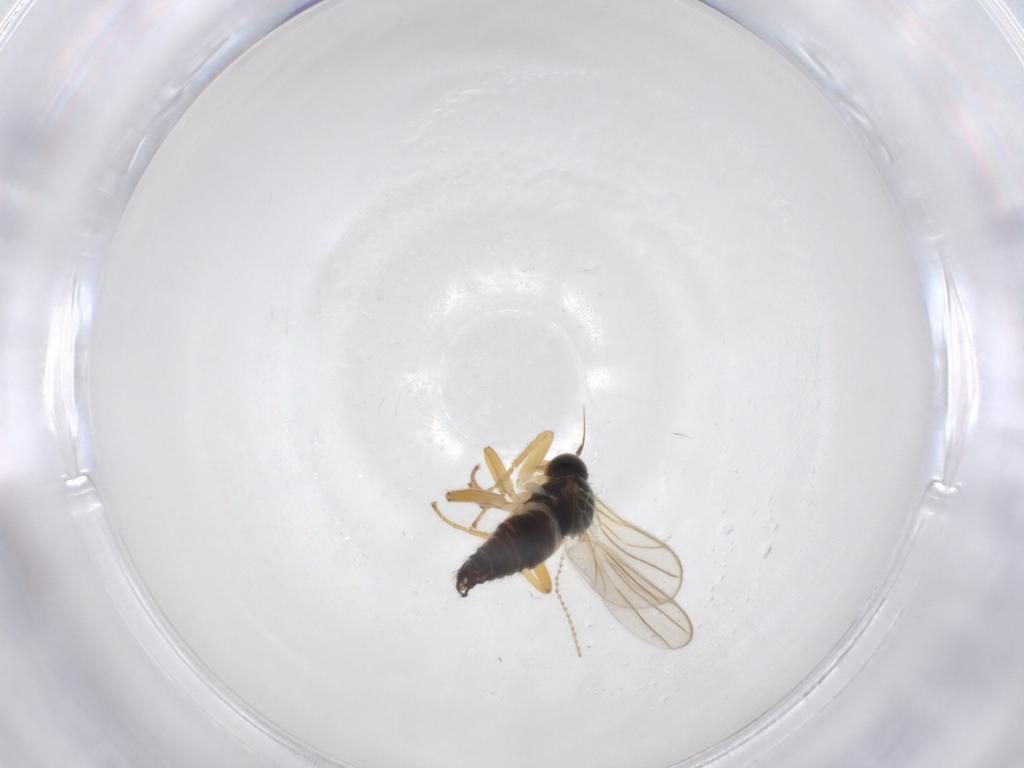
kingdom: Animalia
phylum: Arthropoda
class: Insecta
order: Diptera
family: Hybotidae
